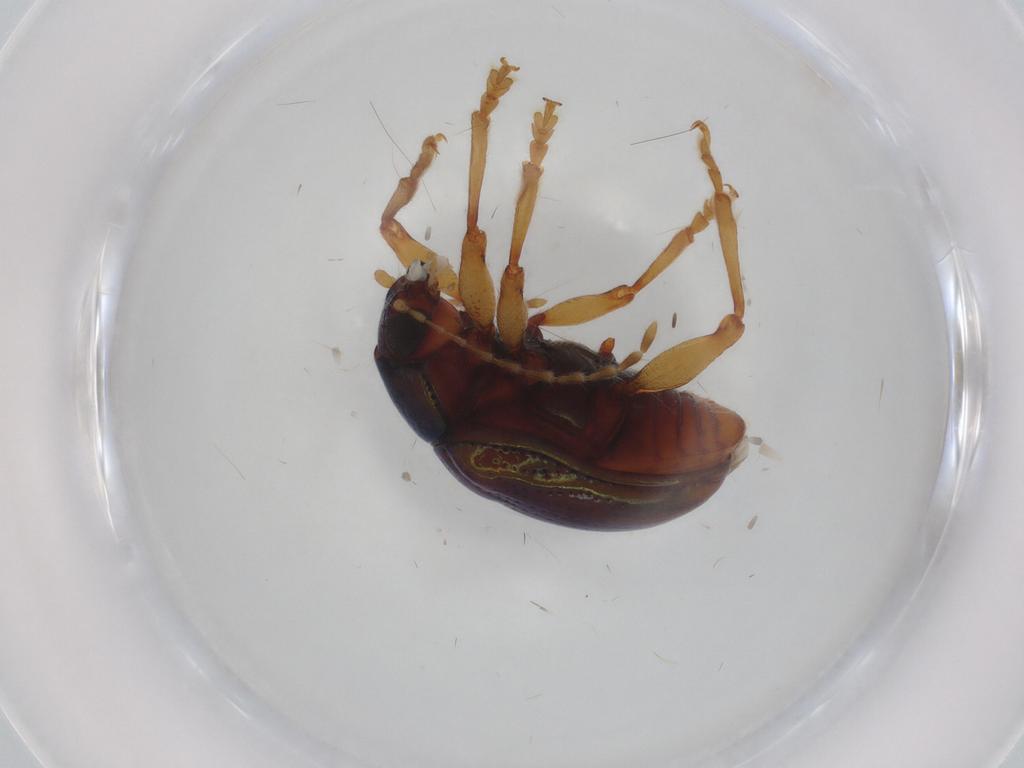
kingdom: Animalia
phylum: Arthropoda
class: Insecta
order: Coleoptera
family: Chrysomelidae
